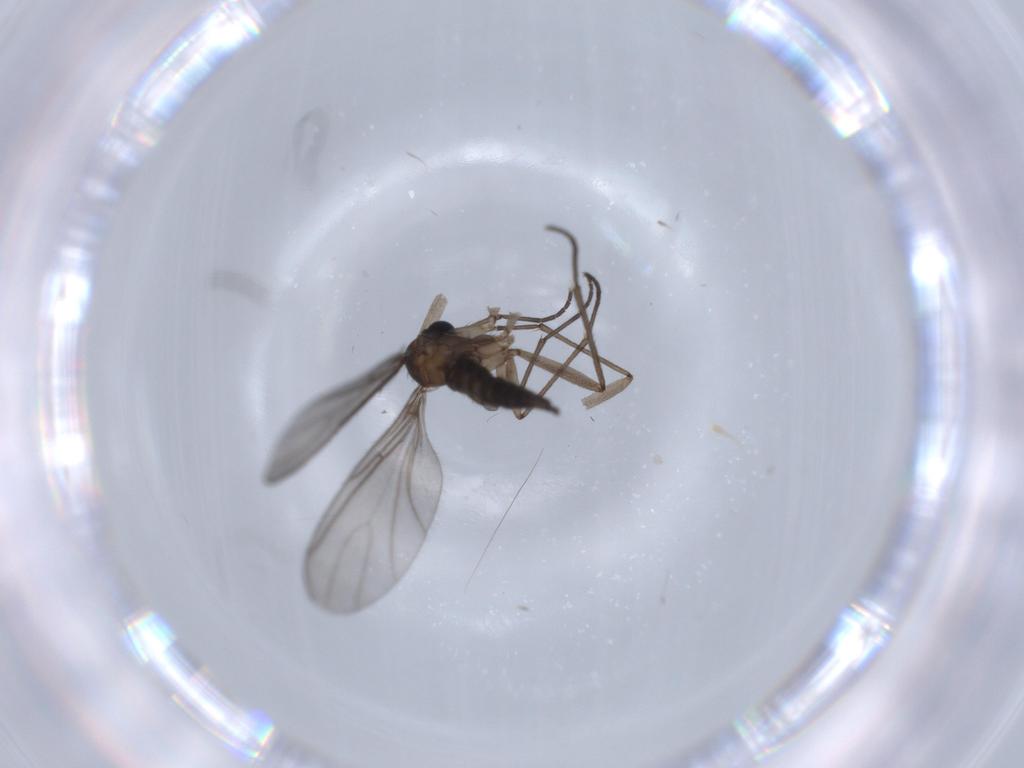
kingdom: Animalia
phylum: Arthropoda
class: Insecta
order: Diptera
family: Sciaridae
